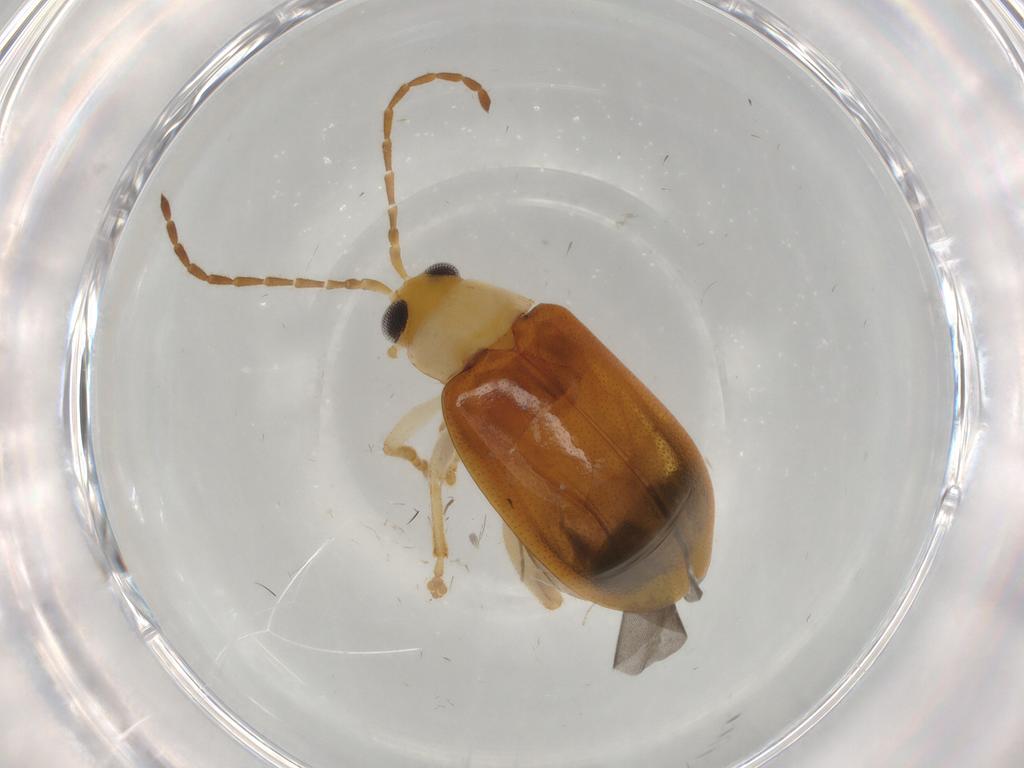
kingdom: Animalia
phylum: Arthropoda
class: Insecta
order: Coleoptera
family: Chrysomelidae
